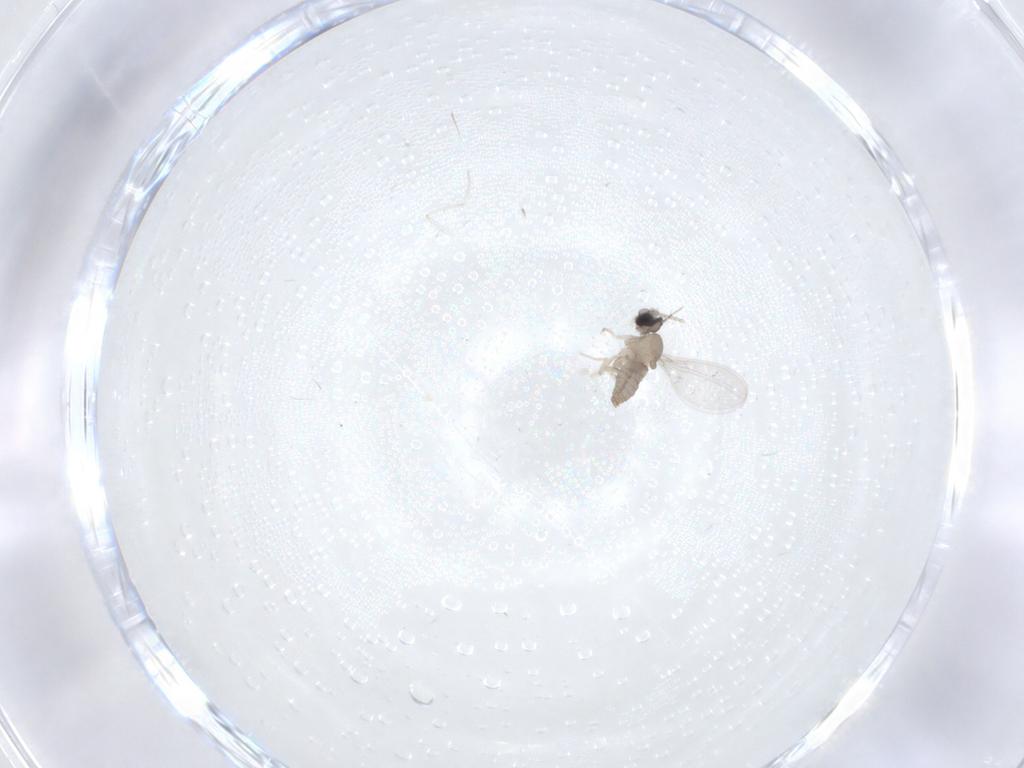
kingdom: Animalia
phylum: Arthropoda
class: Insecta
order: Diptera
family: Cecidomyiidae
